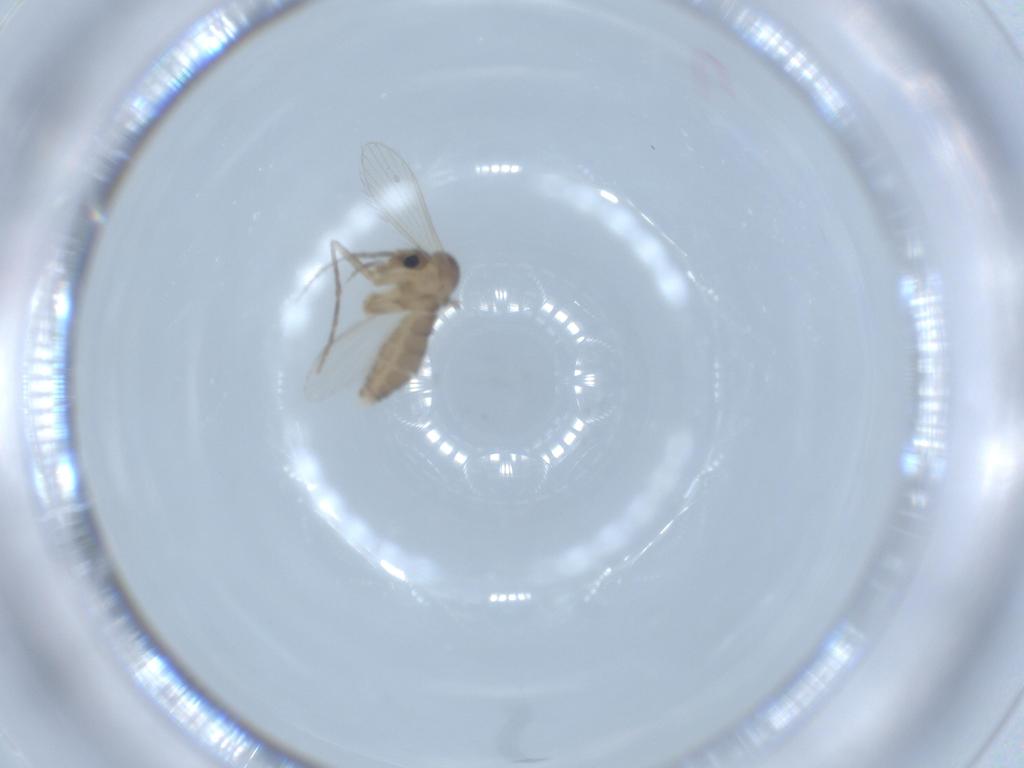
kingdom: Animalia
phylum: Arthropoda
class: Insecta
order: Diptera
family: Psychodidae
